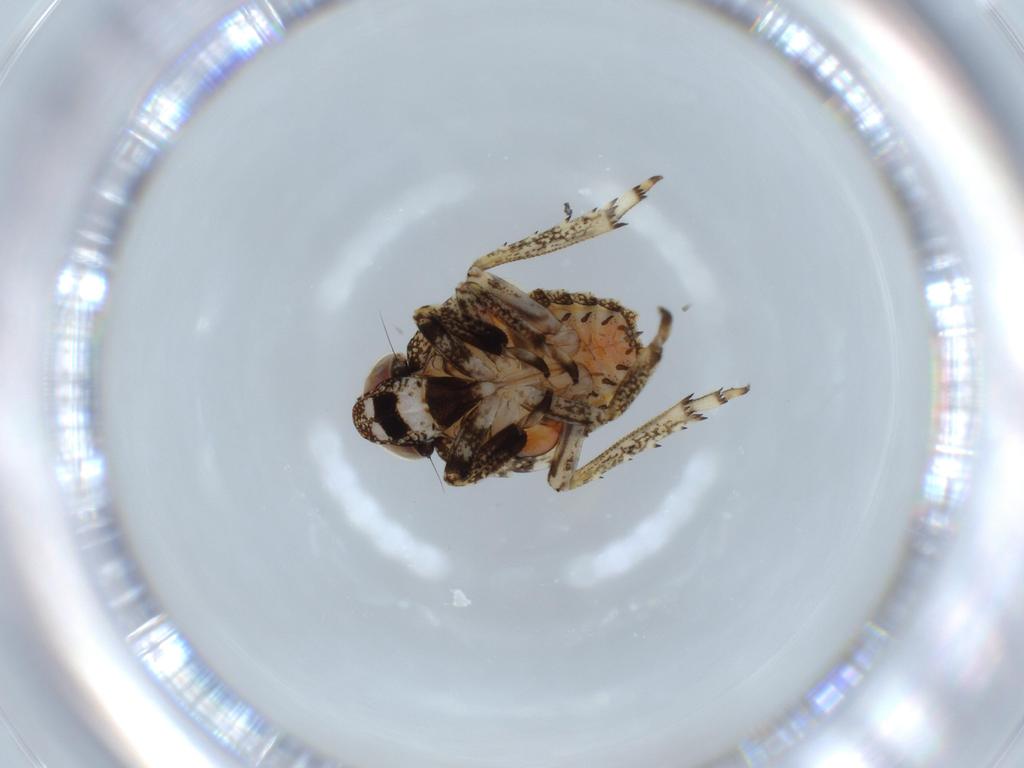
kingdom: Animalia
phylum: Arthropoda
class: Insecta
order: Hemiptera
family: Issidae
